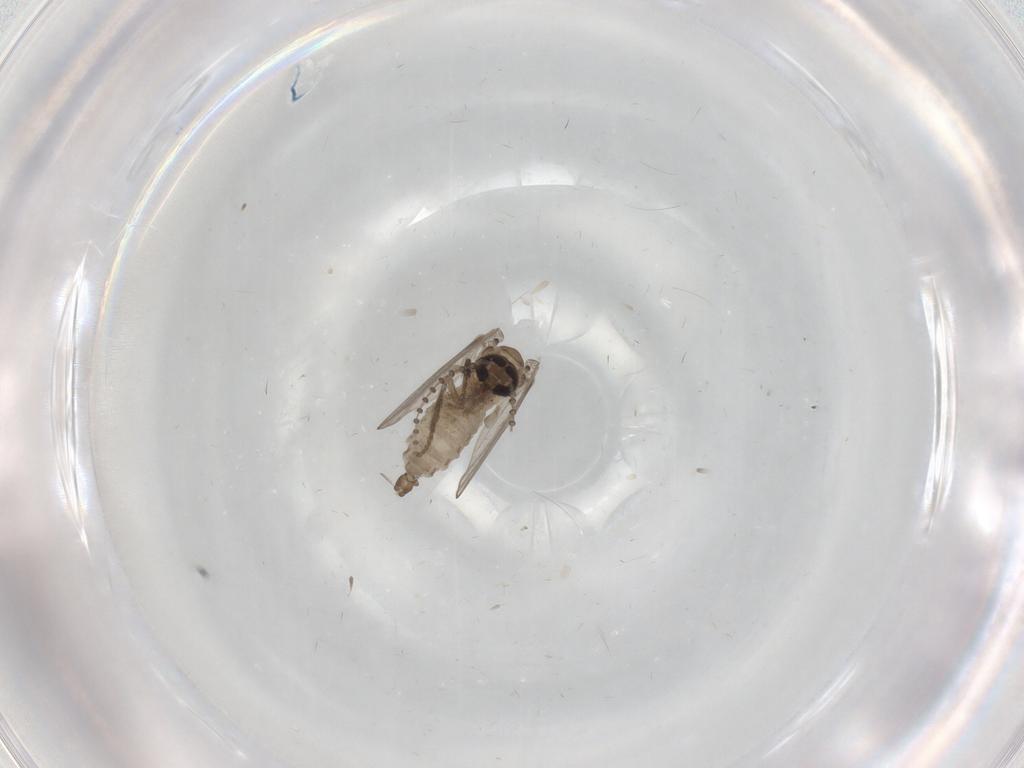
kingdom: Animalia
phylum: Arthropoda
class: Insecta
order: Diptera
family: Psychodidae
